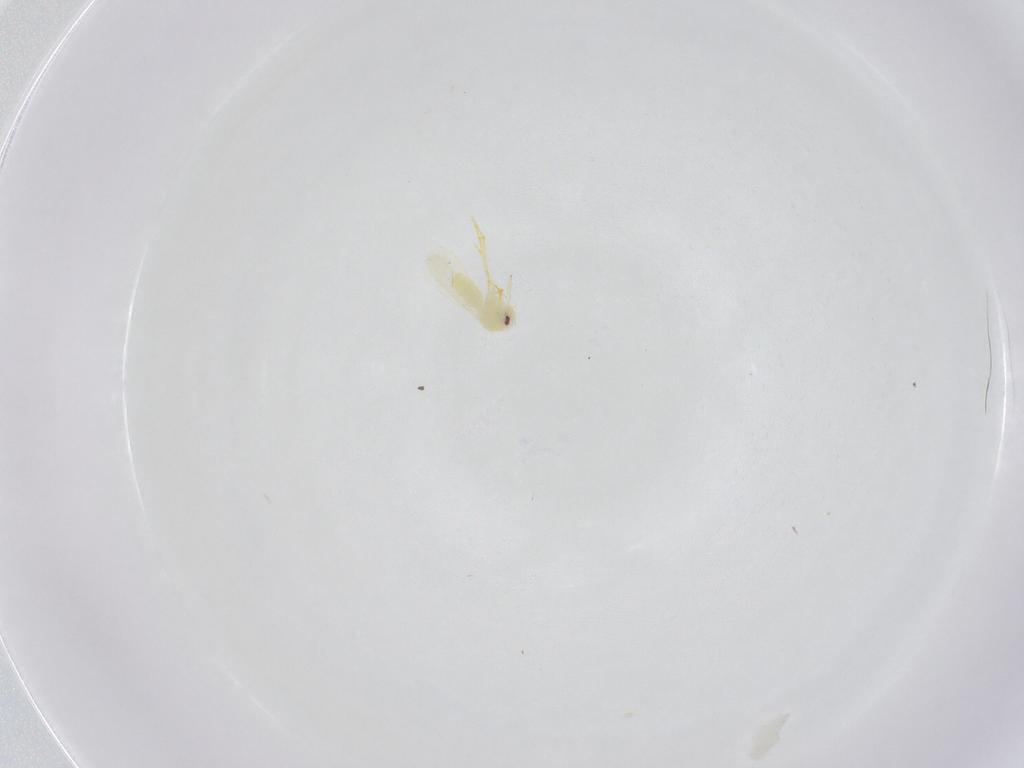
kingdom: Animalia
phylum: Arthropoda
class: Insecta
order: Hemiptera
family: Aleyrodidae
